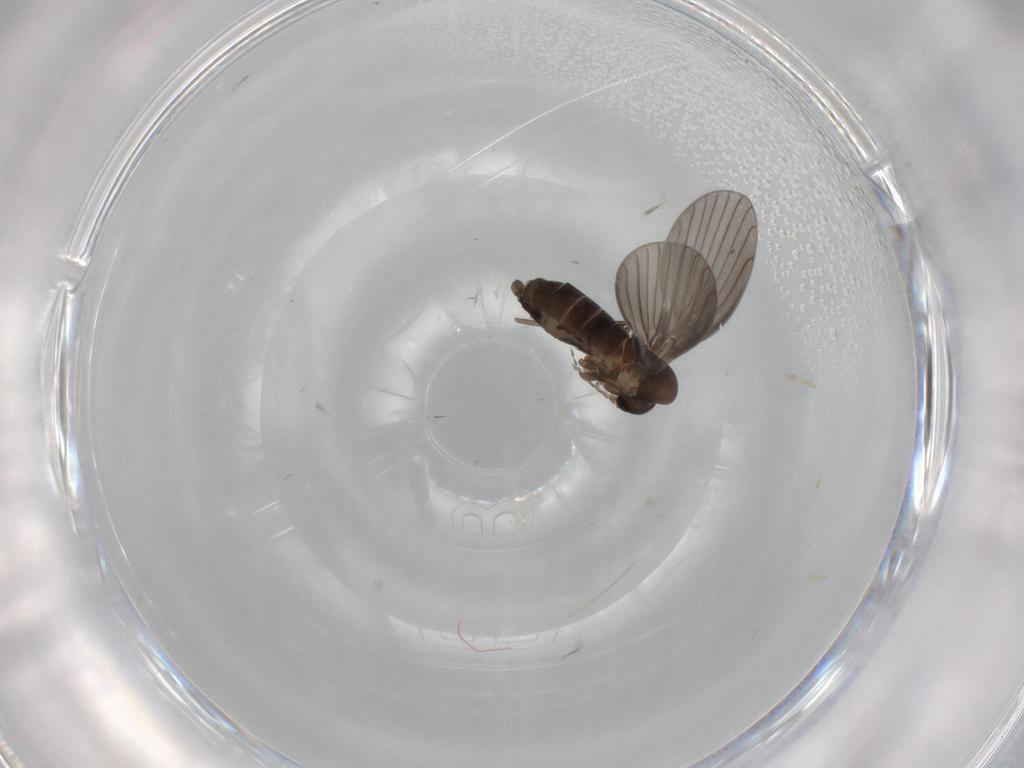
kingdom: Animalia
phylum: Arthropoda
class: Insecta
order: Diptera
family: Psychodidae
